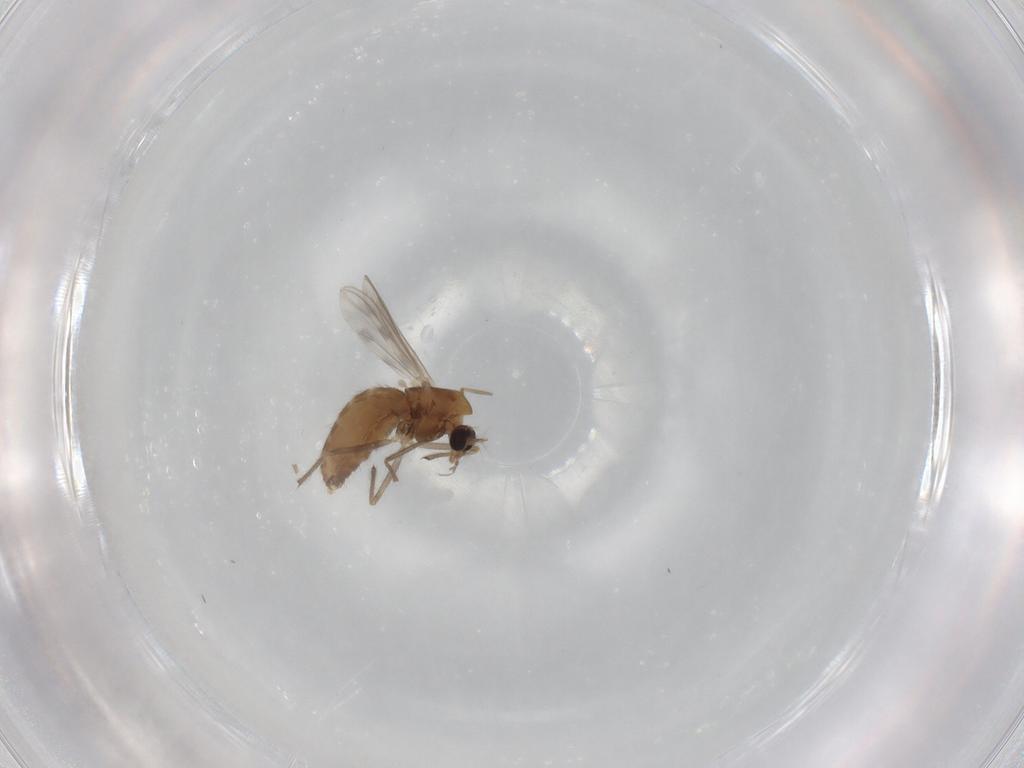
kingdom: Animalia
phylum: Arthropoda
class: Insecta
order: Diptera
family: Chironomidae
